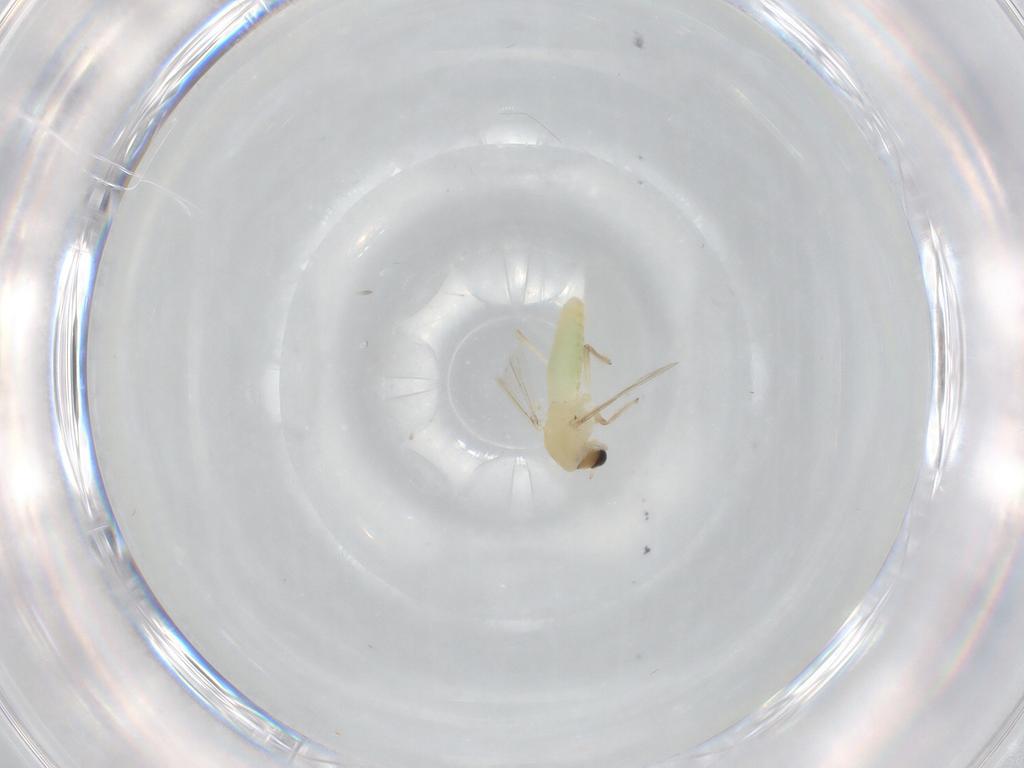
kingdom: Animalia
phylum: Arthropoda
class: Insecta
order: Diptera
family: Chironomidae
